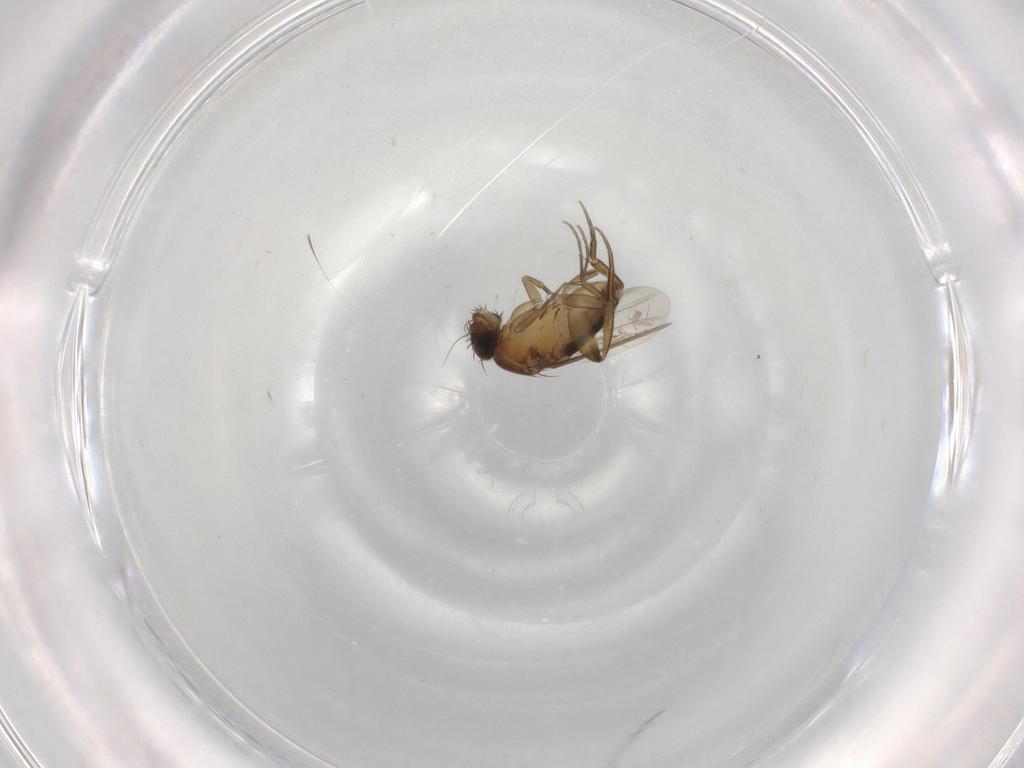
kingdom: Animalia
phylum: Arthropoda
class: Insecta
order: Diptera
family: Phoridae
